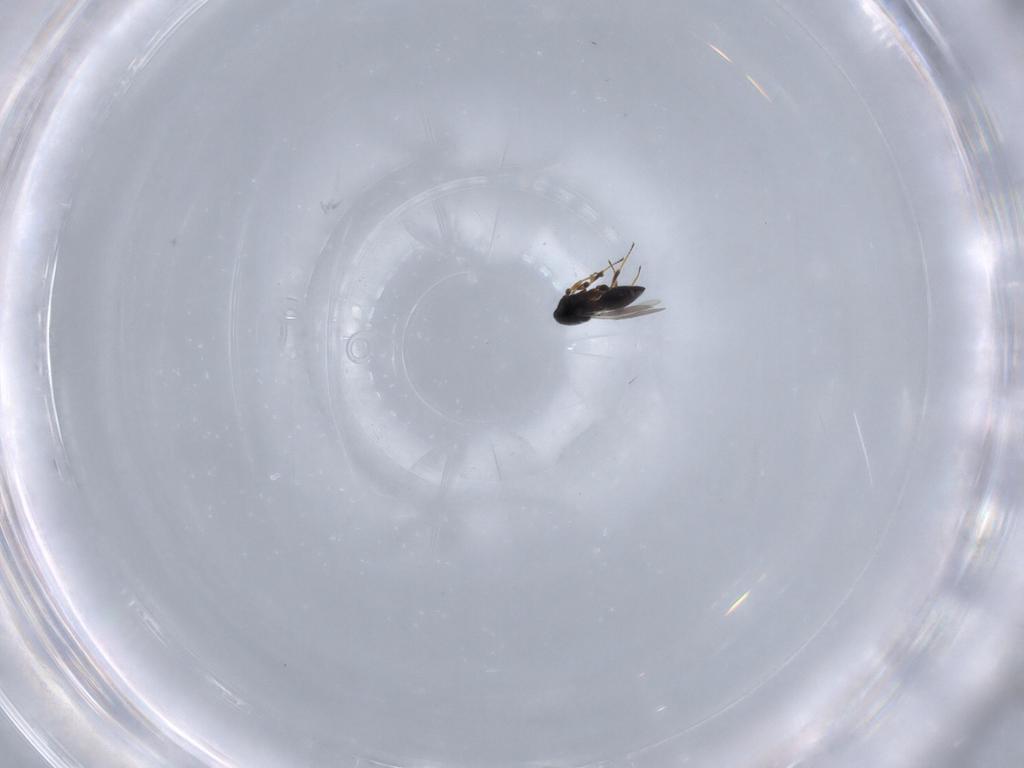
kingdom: Animalia
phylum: Arthropoda
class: Insecta
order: Hymenoptera
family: Platygastridae
